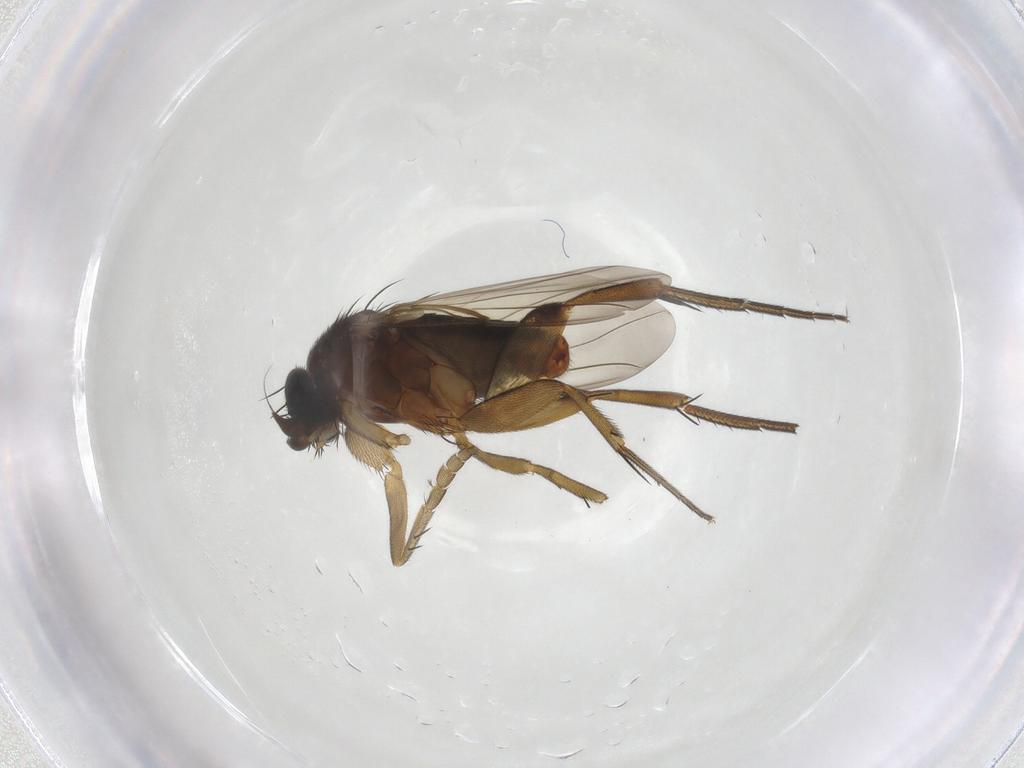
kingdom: Animalia
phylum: Arthropoda
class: Insecta
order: Diptera
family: Phoridae
